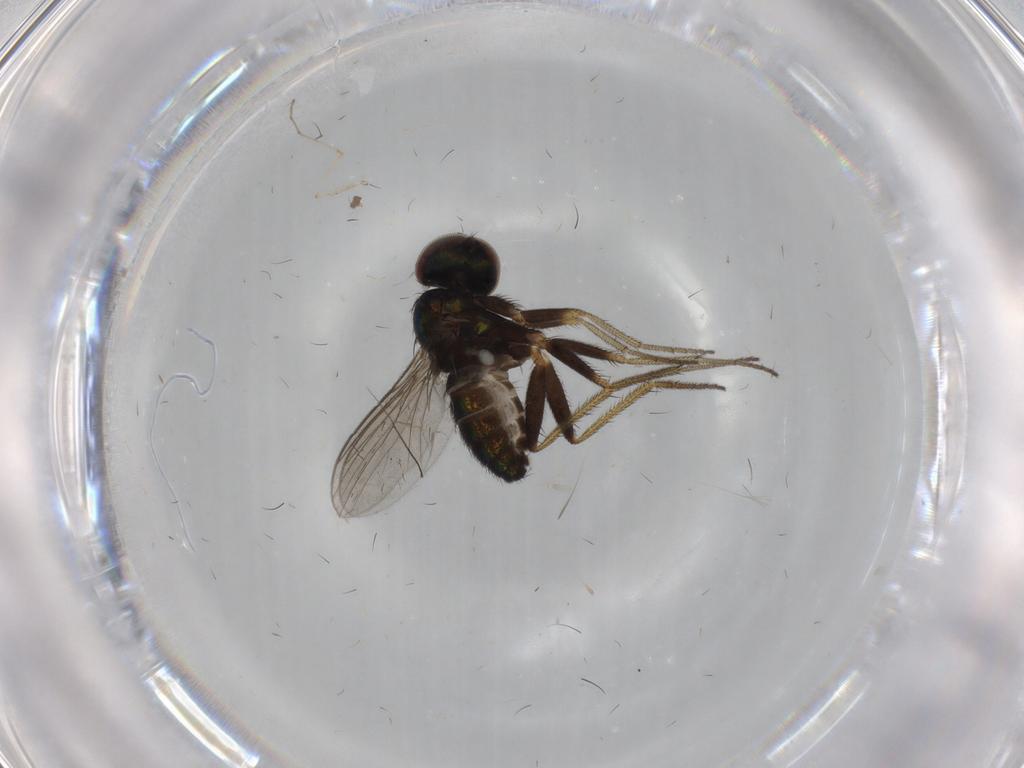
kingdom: Animalia
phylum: Arthropoda
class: Insecta
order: Diptera
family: Keroplatidae
